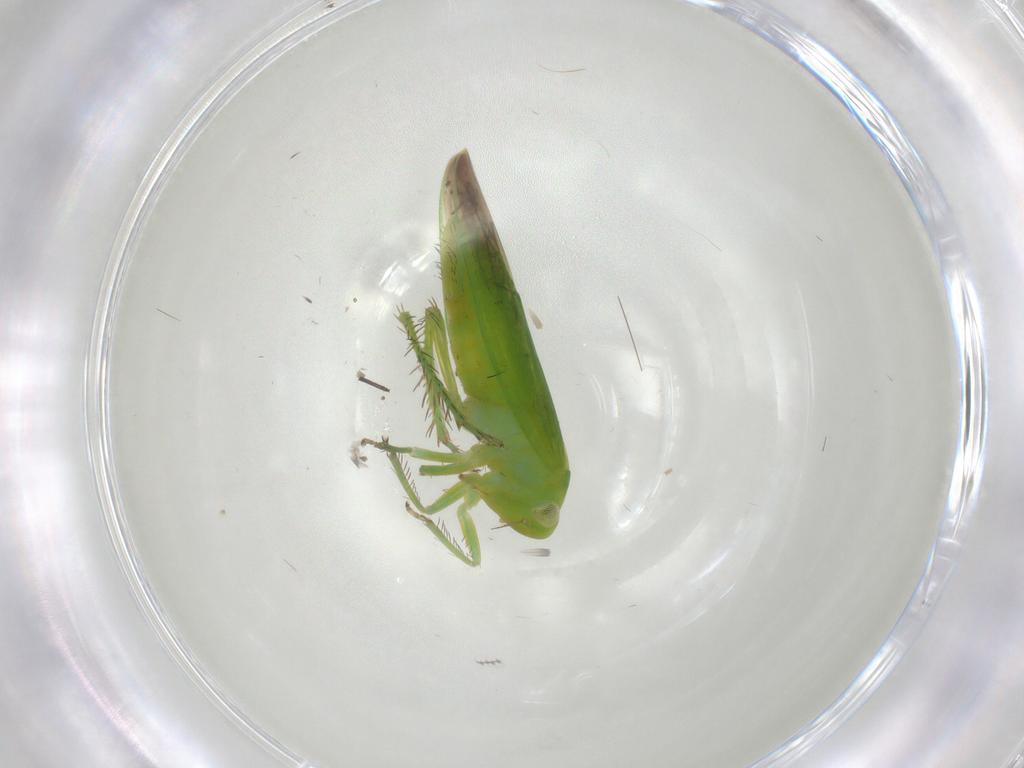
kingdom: Animalia
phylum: Arthropoda
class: Insecta
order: Hemiptera
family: Cicadellidae
